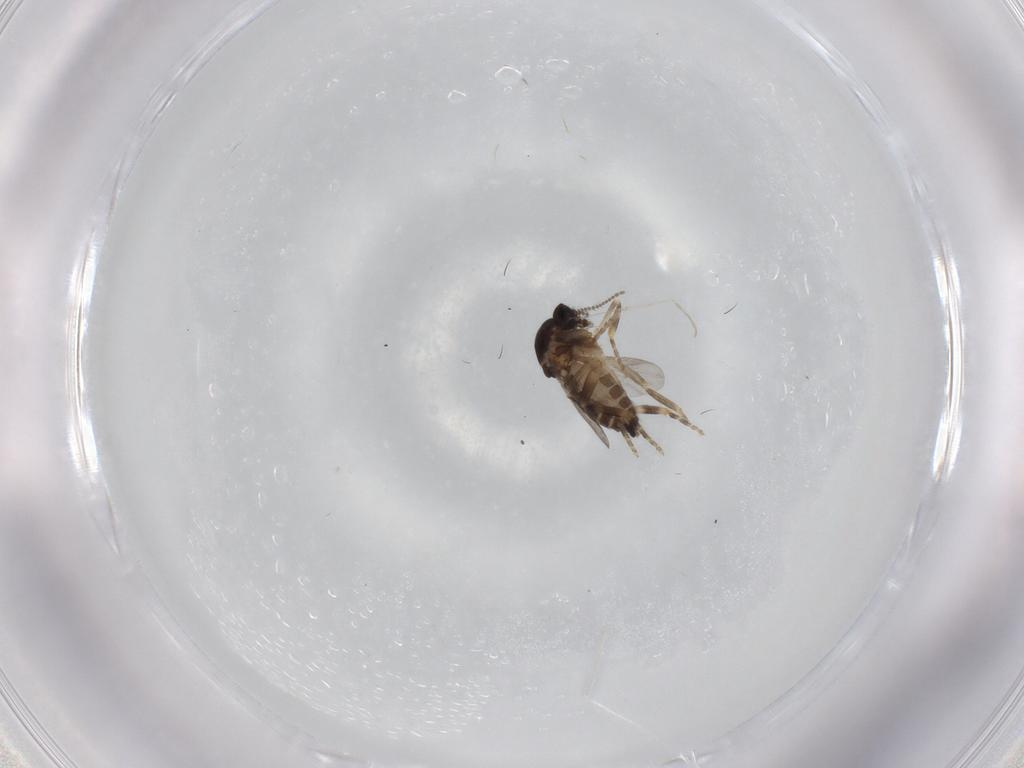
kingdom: Animalia
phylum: Arthropoda
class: Insecta
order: Diptera
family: Ceratopogonidae
